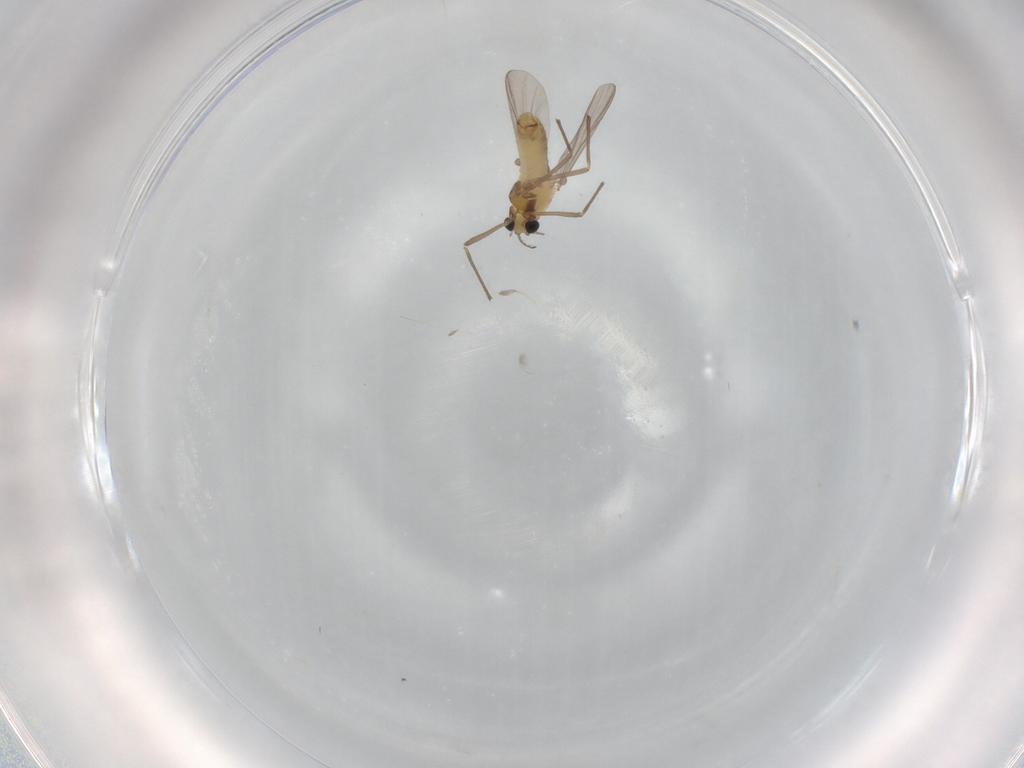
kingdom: Animalia
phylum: Arthropoda
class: Insecta
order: Diptera
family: Chironomidae
